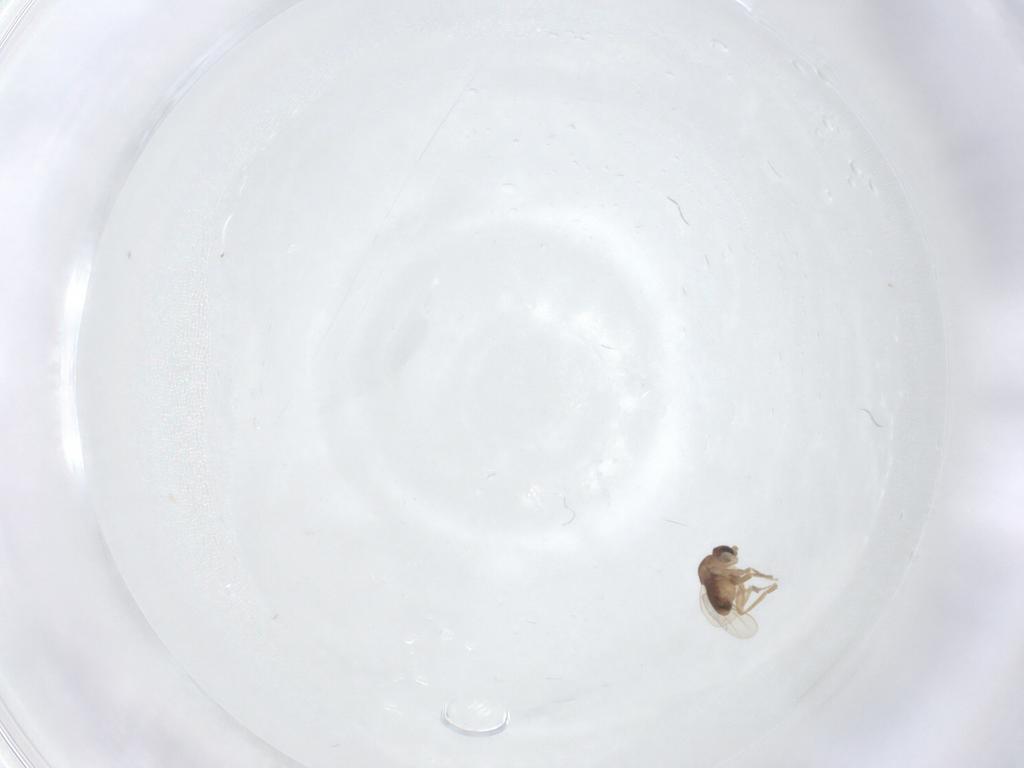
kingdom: Animalia
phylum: Arthropoda
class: Insecta
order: Diptera
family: Phoridae
